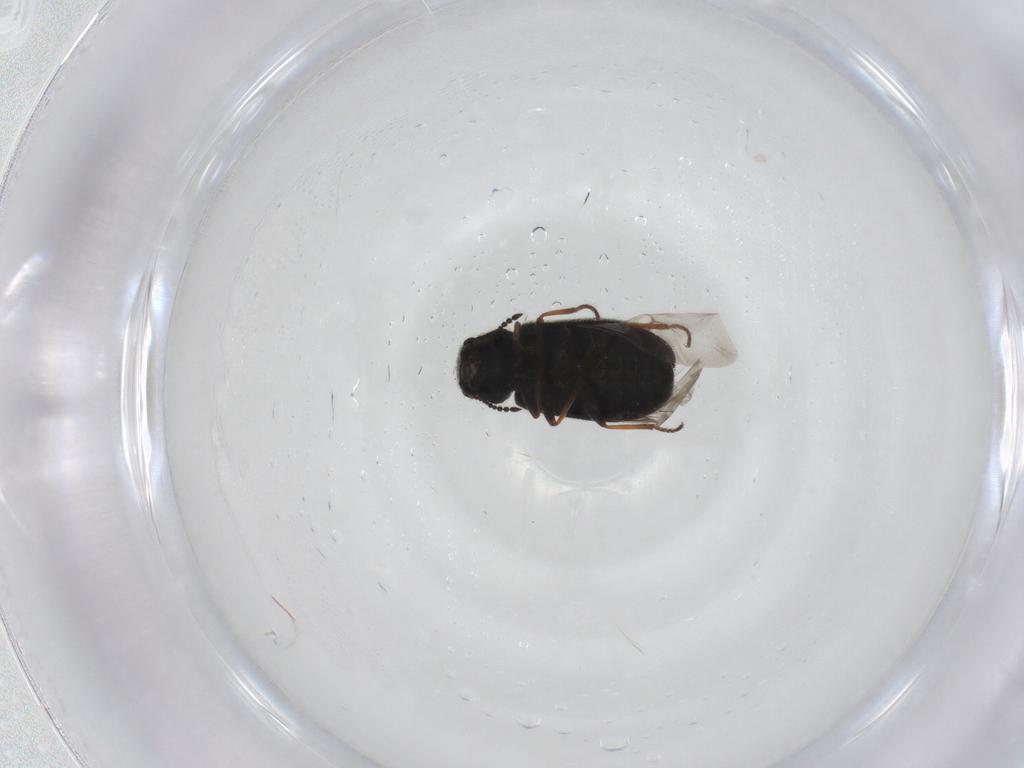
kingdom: Animalia
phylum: Arthropoda
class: Insecta
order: Coleoptera
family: Melyridae
